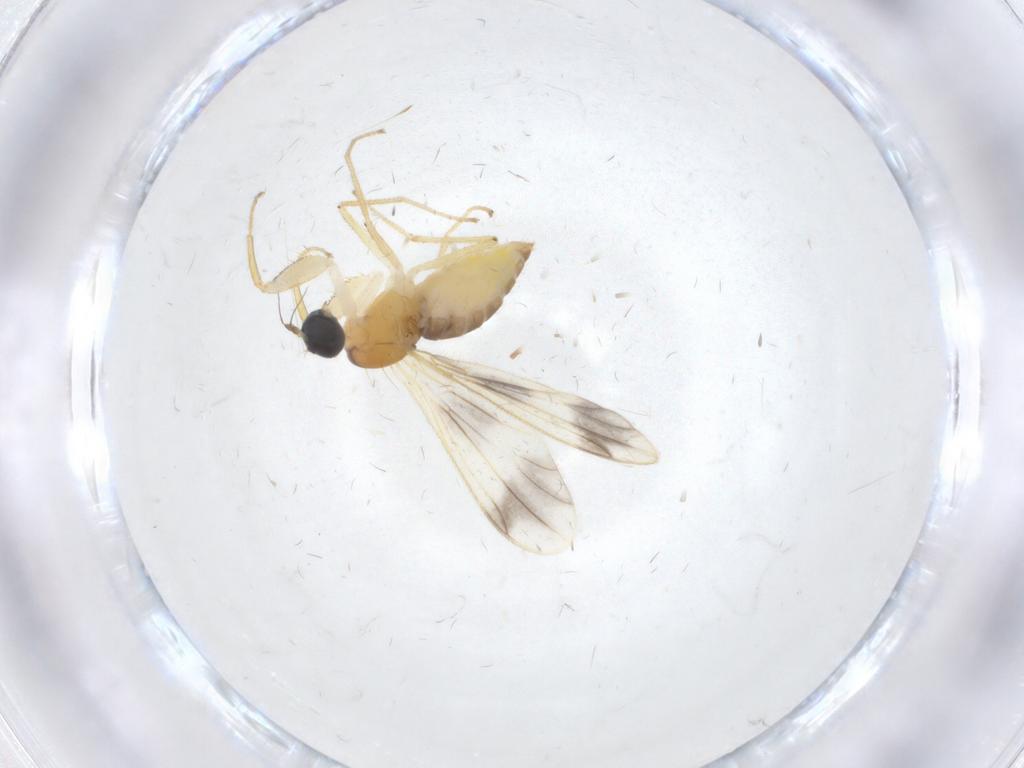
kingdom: Animalia
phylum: Arthropoda
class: Insecta
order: Diptera
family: Empididae
